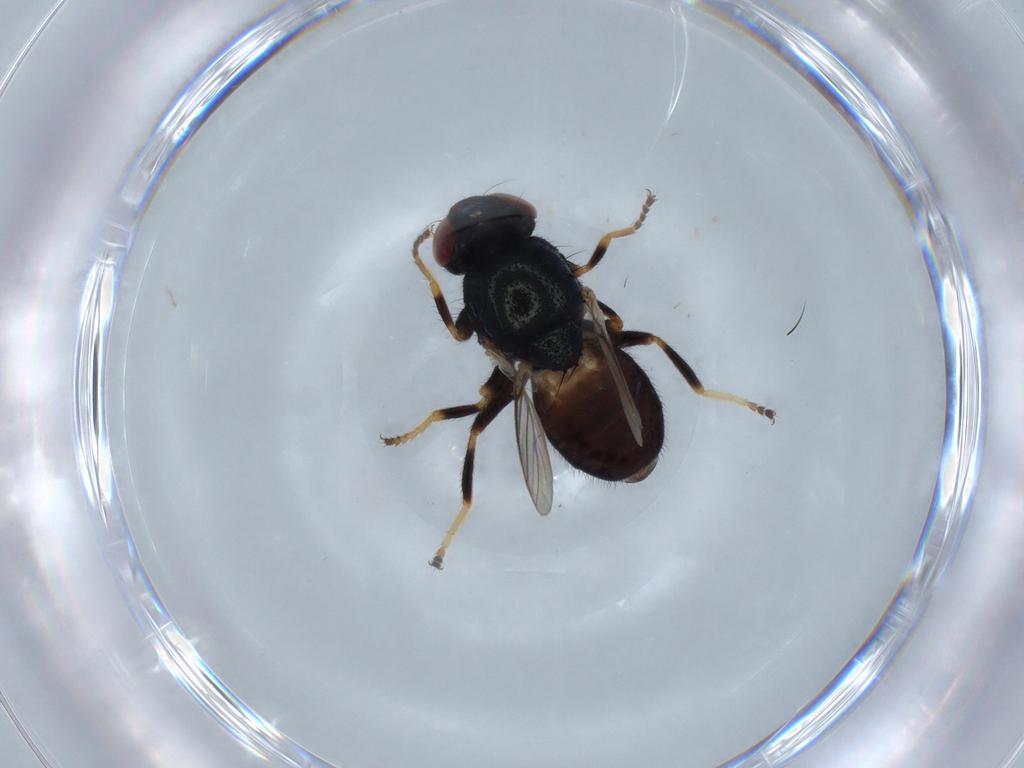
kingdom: Animalia
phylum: Arthropoda
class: Insecta
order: Diptera
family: Chloropidae
